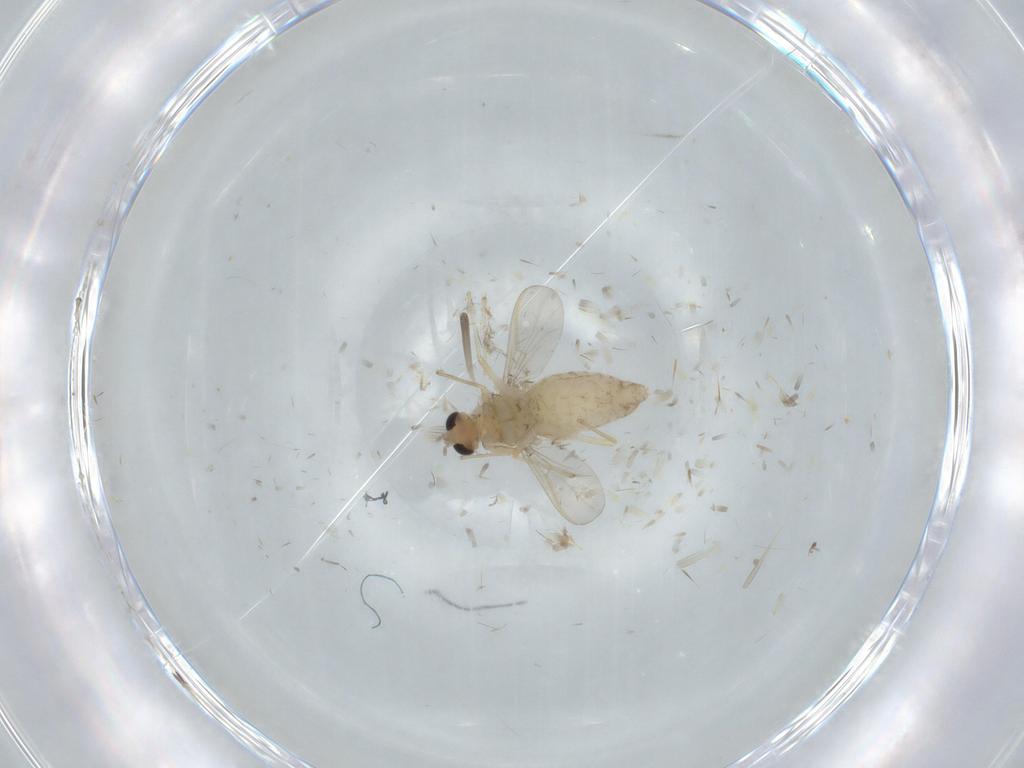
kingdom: Animalia
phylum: Arthropoda
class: Insecta
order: Diptera
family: Chironomidae
